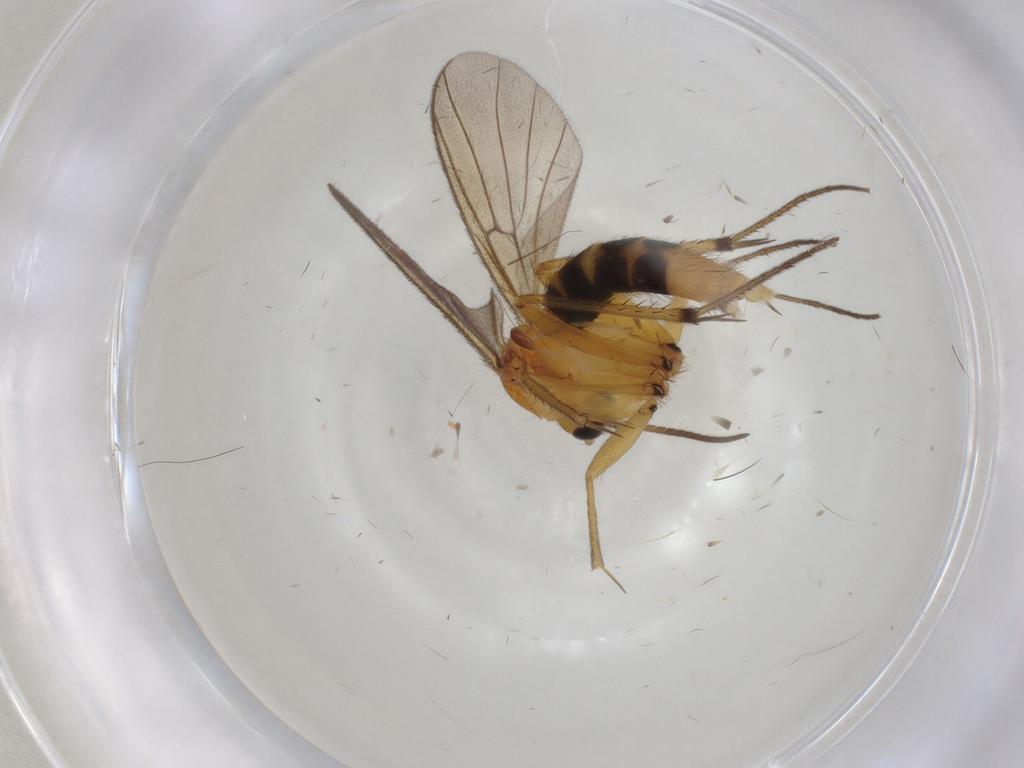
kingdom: Animalia
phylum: Arthropoda
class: Insecta
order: Diptera
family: Mycetophilidae
